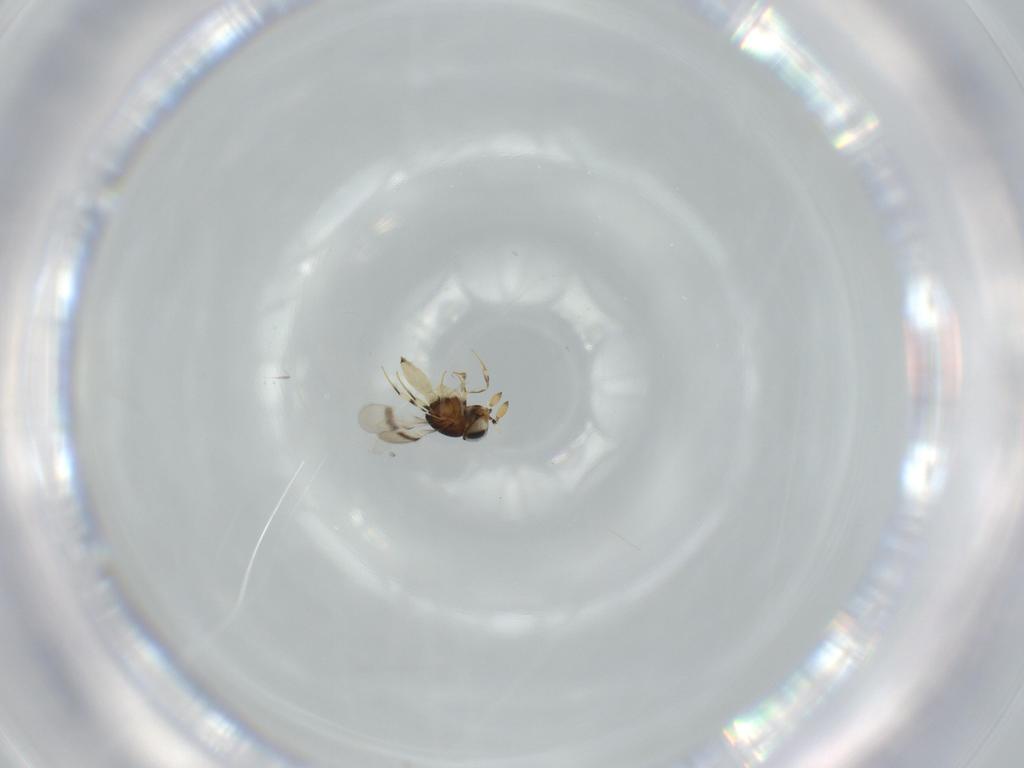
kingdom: Animalia
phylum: Arthropoda
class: Insecta
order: Hymenoptera
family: Scelionidae
